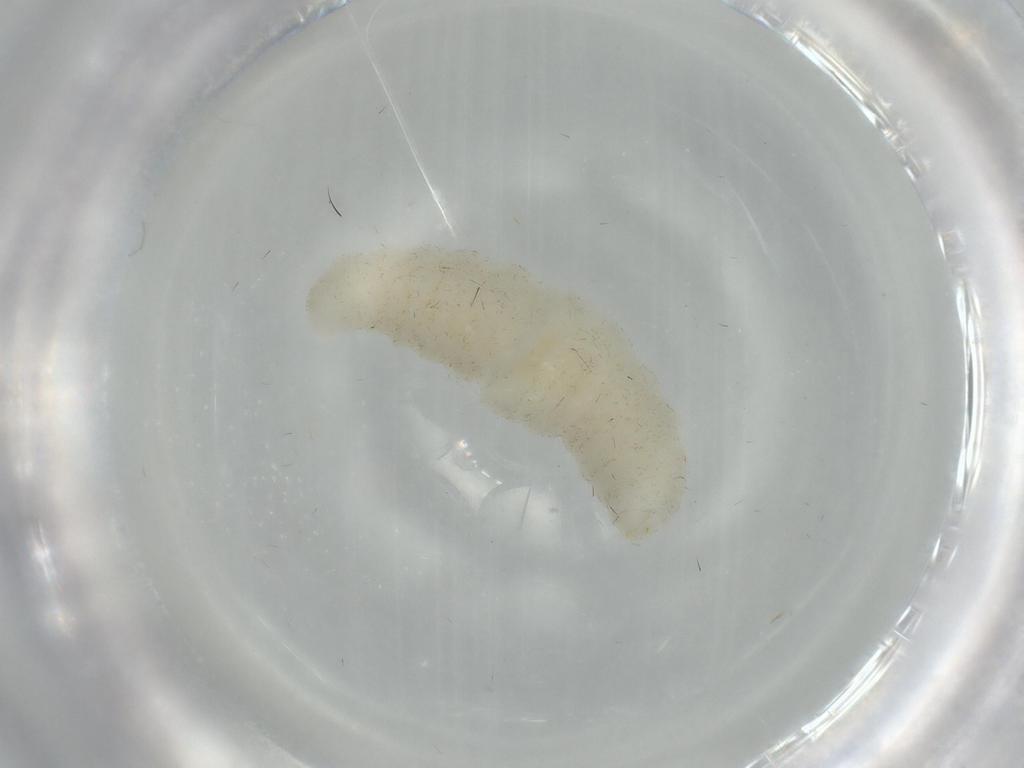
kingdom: Animalia
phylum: Arthropoda
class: Insecta
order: Hymenoptera
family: Braconidae
